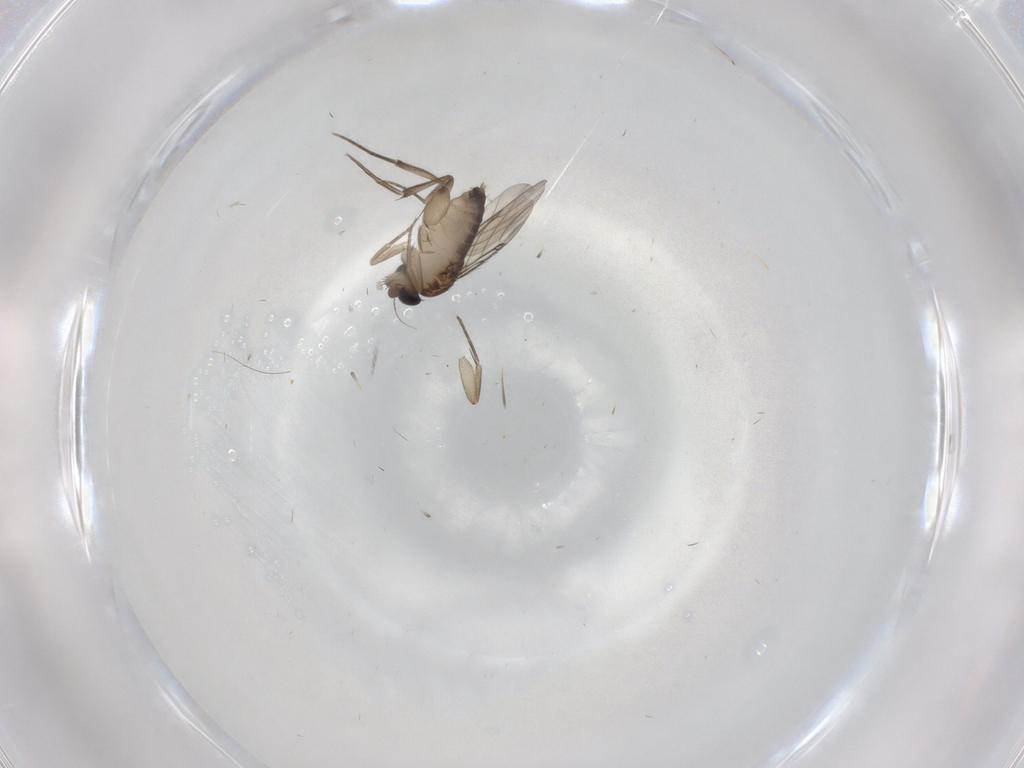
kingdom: Animalia
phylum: Arthropoda
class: Insecta
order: Diptera
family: Phoridae
